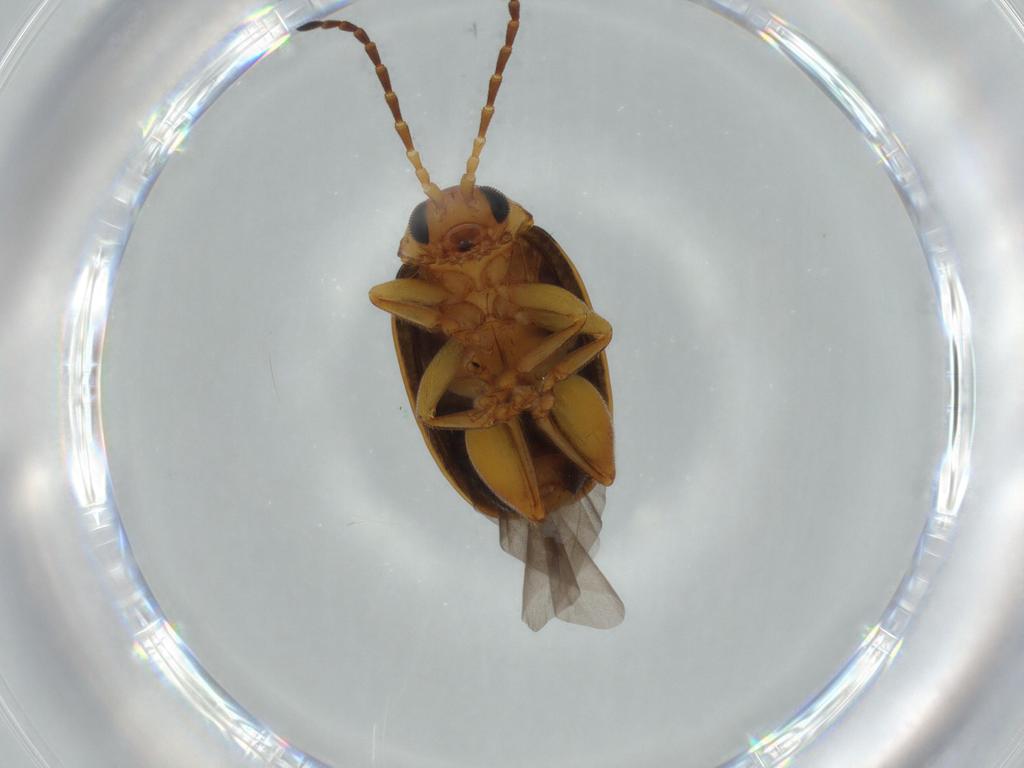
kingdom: Animalia
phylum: Arthropoda
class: Insecta
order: Coleoptera
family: Chrysomelidae
